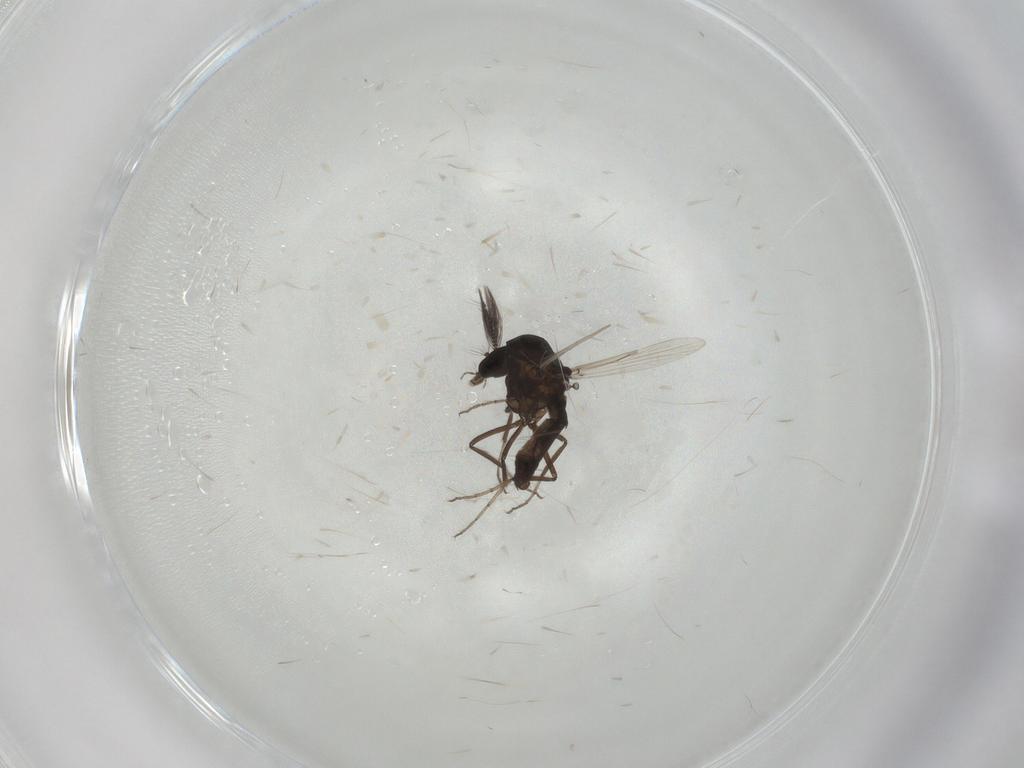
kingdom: Animalia
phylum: Arthropoda
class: Insecta
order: Diptera
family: Ceratopogonidae
